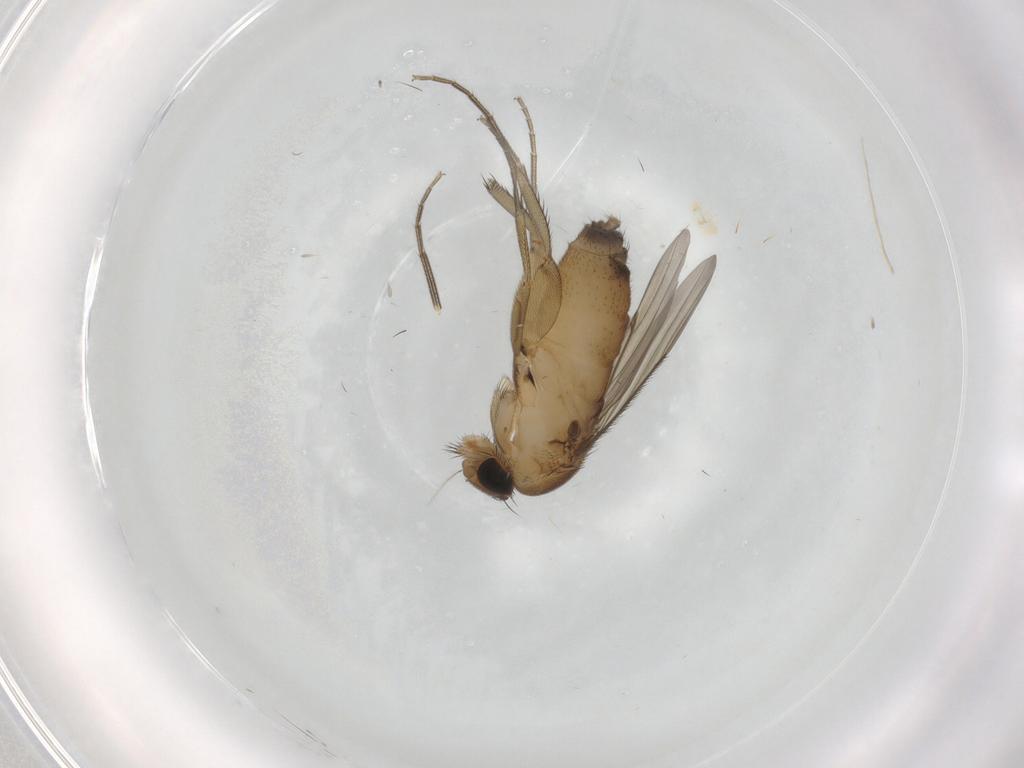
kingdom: Animalia
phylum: Arthropoda
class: Insecta
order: Diptera
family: Phoridae
